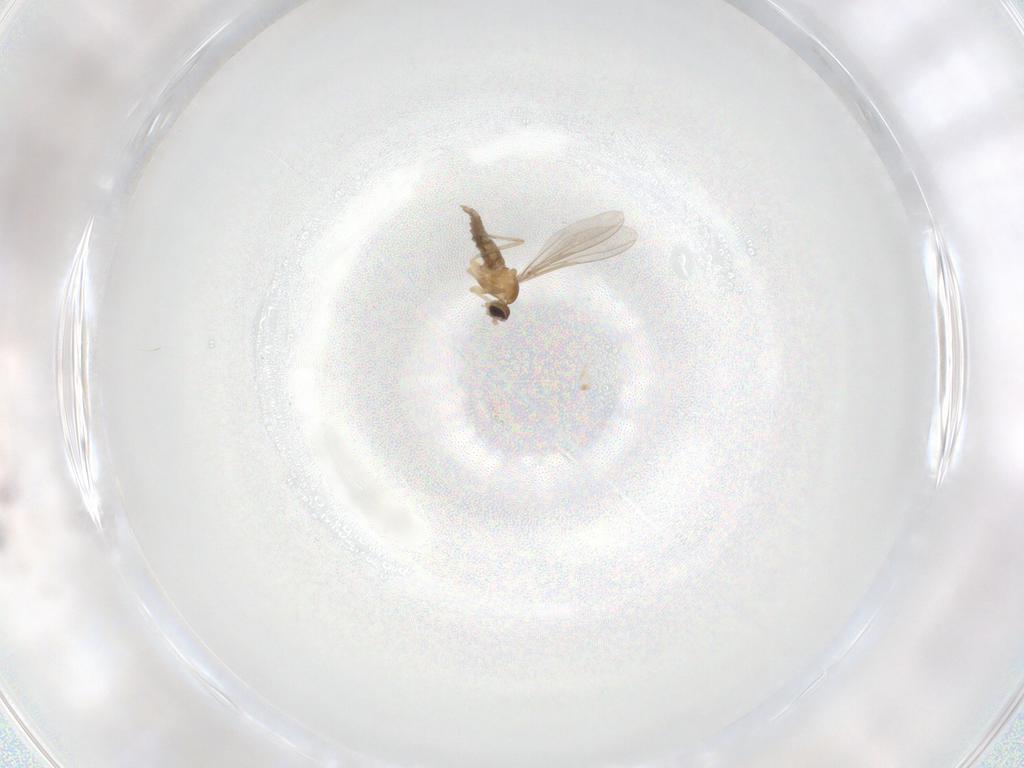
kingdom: Animalia
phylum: Arthropoda
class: Insecta
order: Diptera
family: Cecidomyiidae
